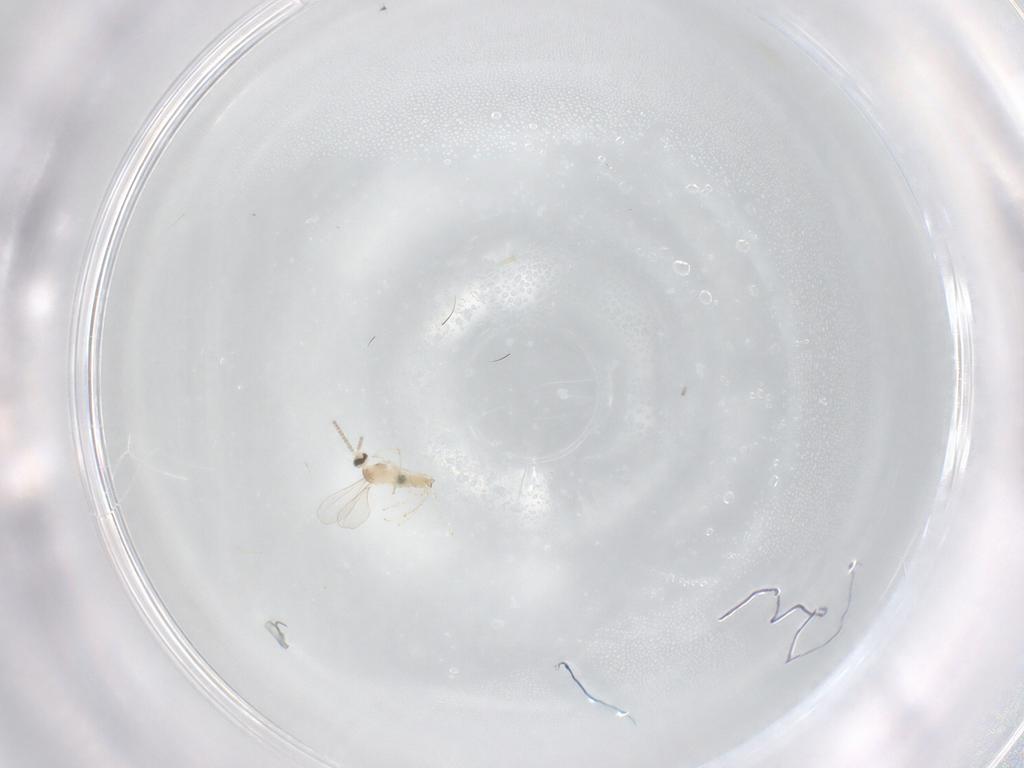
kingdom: Animalia
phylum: Arthropoda
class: Insecta
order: Diptera
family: Cecidomyiidae
